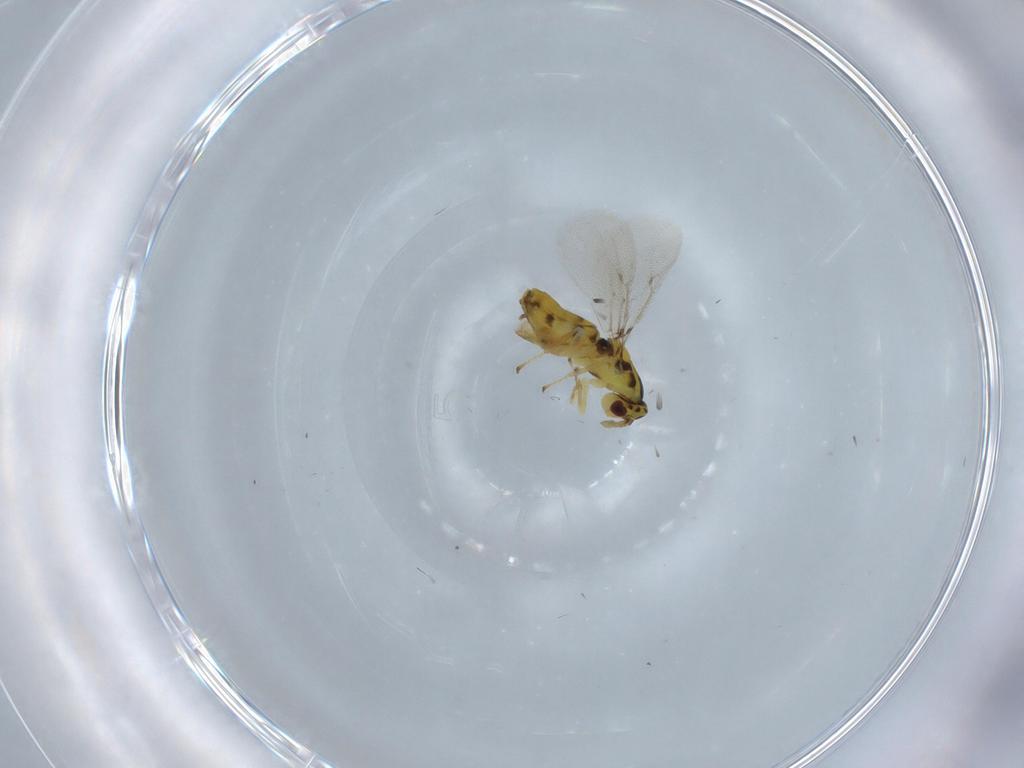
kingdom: Animalia
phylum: Arthropoda
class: Insecta
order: Hymenoptera
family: Eulophidae
